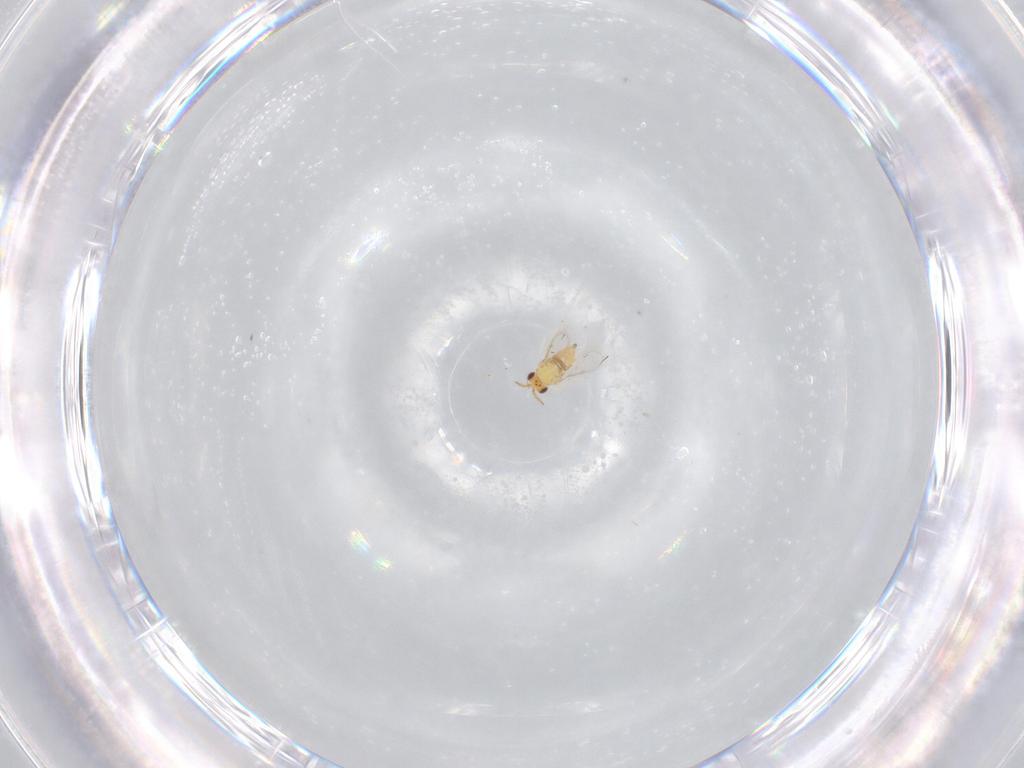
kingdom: Animalia
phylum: Arthropoda
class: Insecta
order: Hymenoptera
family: Aphelinidae
